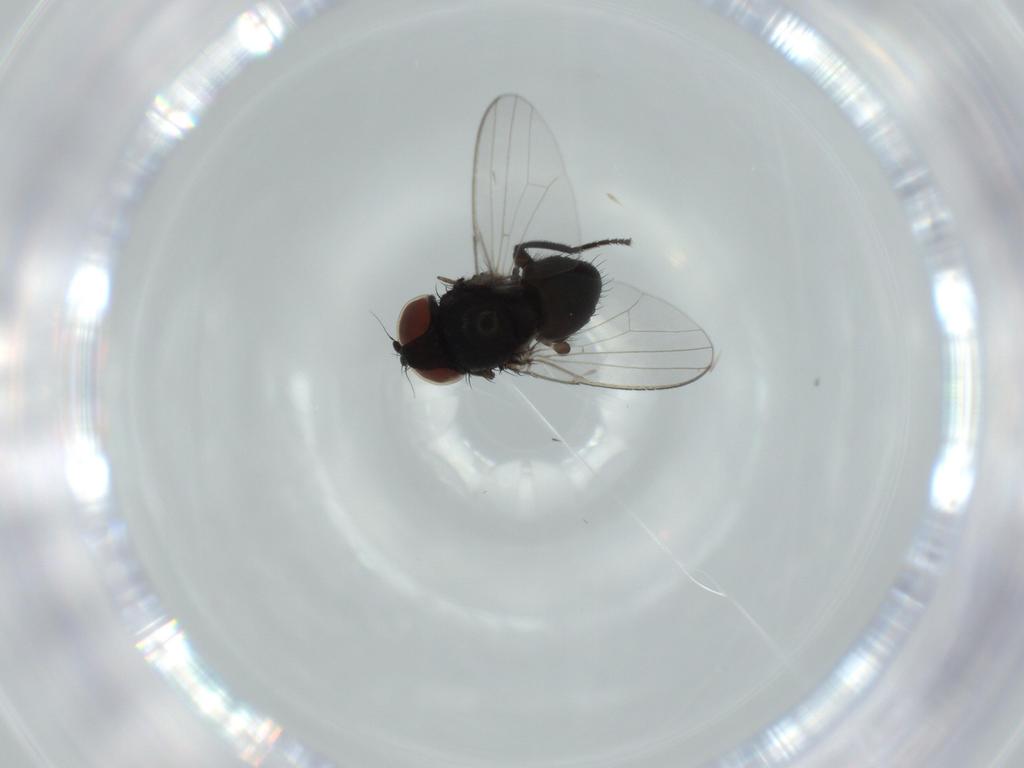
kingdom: Animalia
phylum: Arthropoda
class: Insecta
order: Diptera
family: Chironomidae
